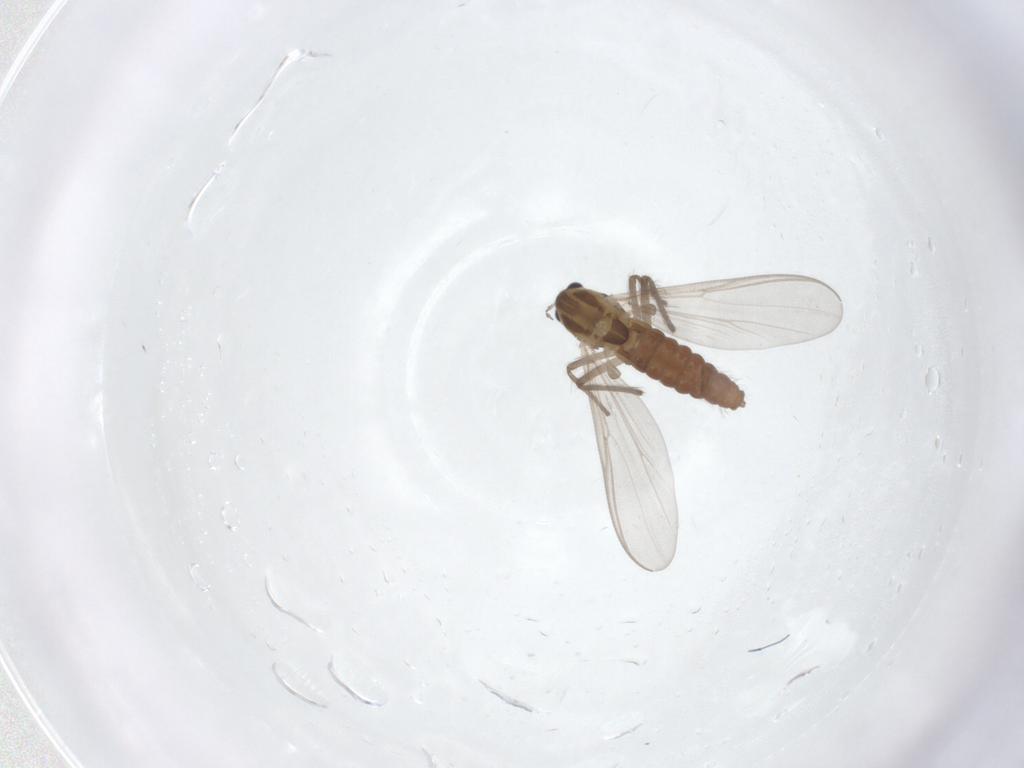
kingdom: Animalia
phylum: Arthropoda
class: Insecta
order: Diptera
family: Chironomidae
